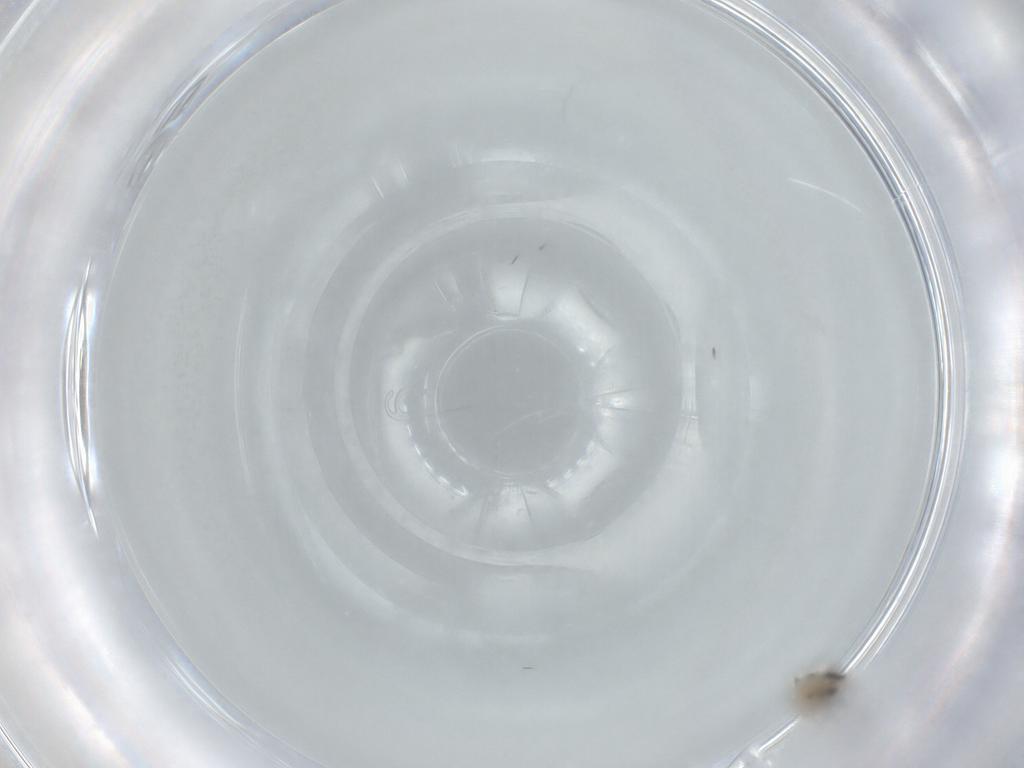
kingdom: Animalia
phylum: Arthropoda
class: Insecta
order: Diptera
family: Cecidomyiidae
